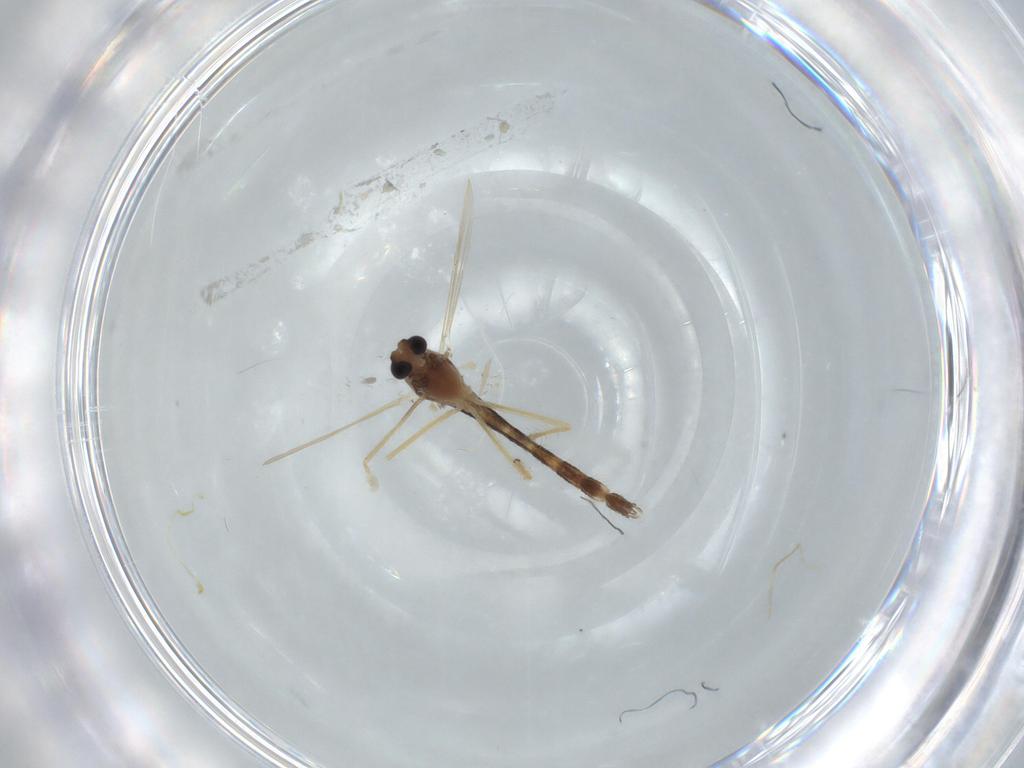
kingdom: Animalia
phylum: Arthropoda
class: Insecta
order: Diptera
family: Chironomidae
